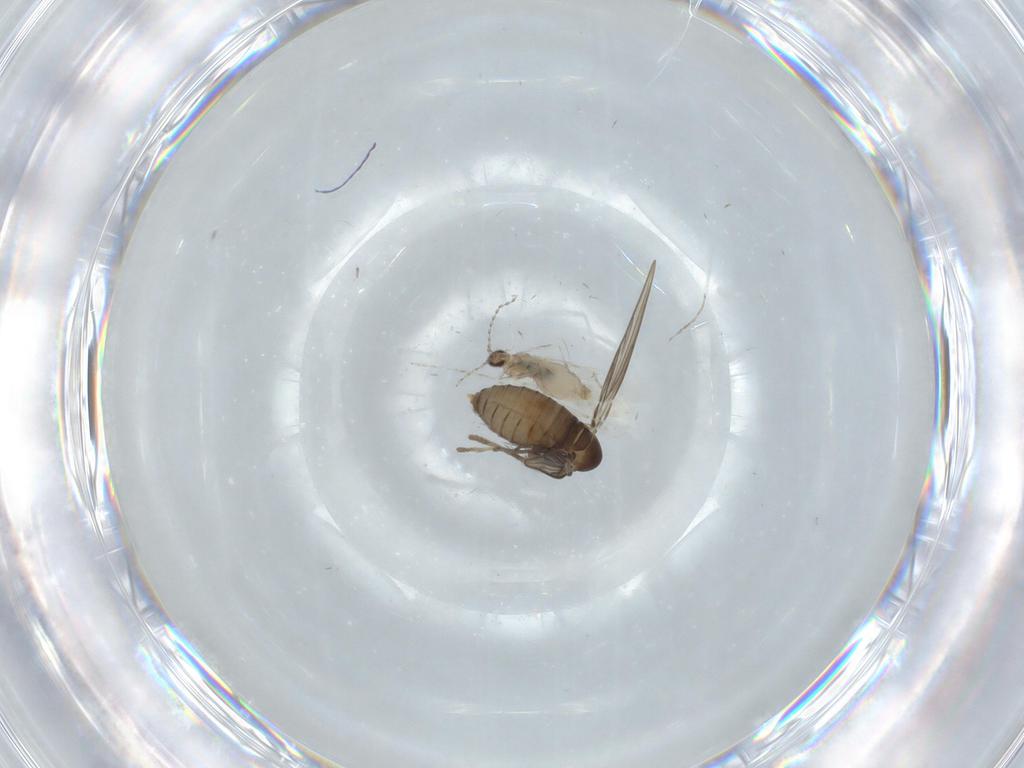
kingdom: Animalia
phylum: Arthropoda
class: Insecta
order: Diptera
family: Psychodidae
